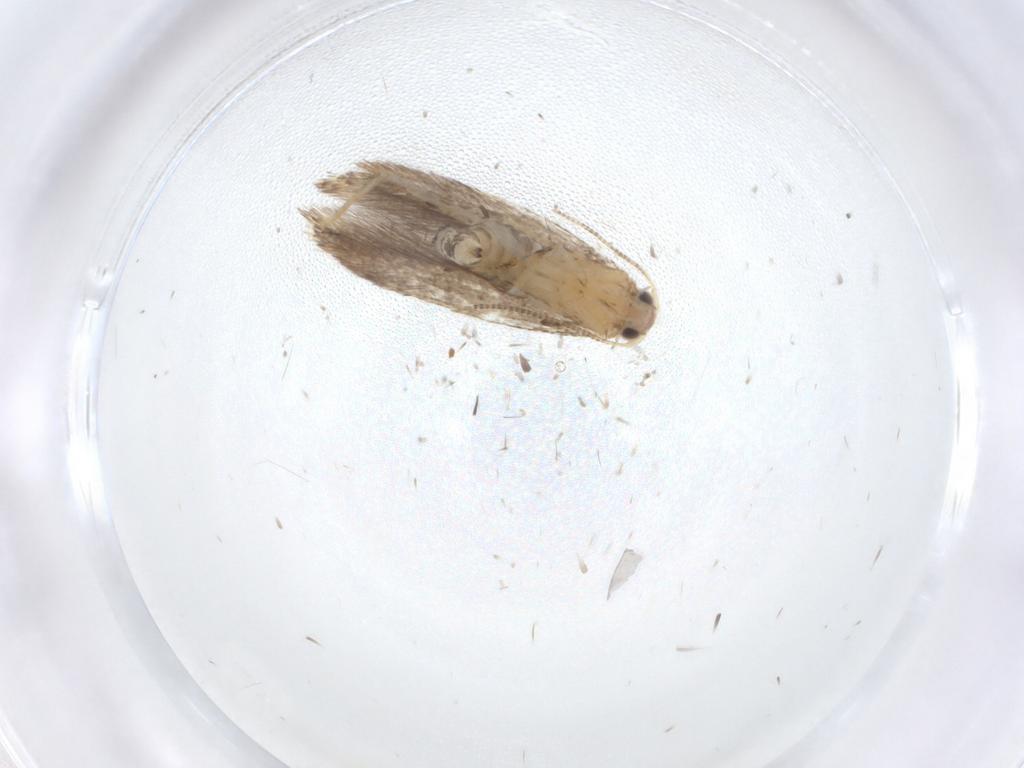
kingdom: Animalia
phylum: Arthropoda
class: Insecta
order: Lepidoptera
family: Tineidae
